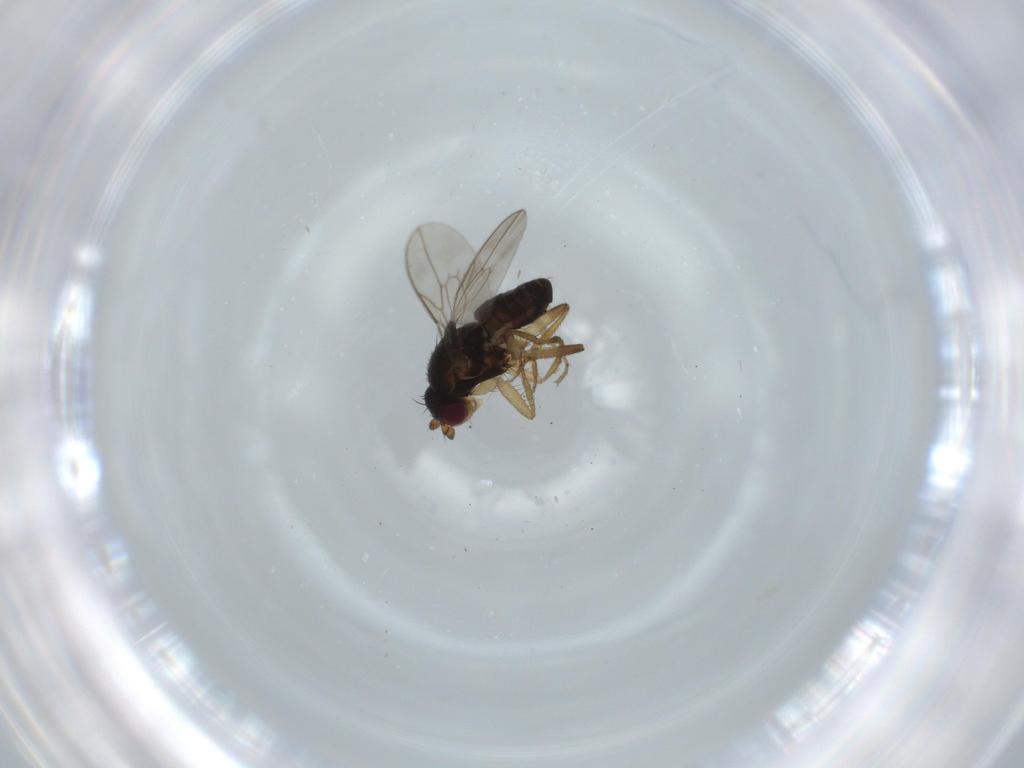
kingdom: Animalia
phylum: Arthropoda
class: Insecta
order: Diptera
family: Sphaeroceridae
